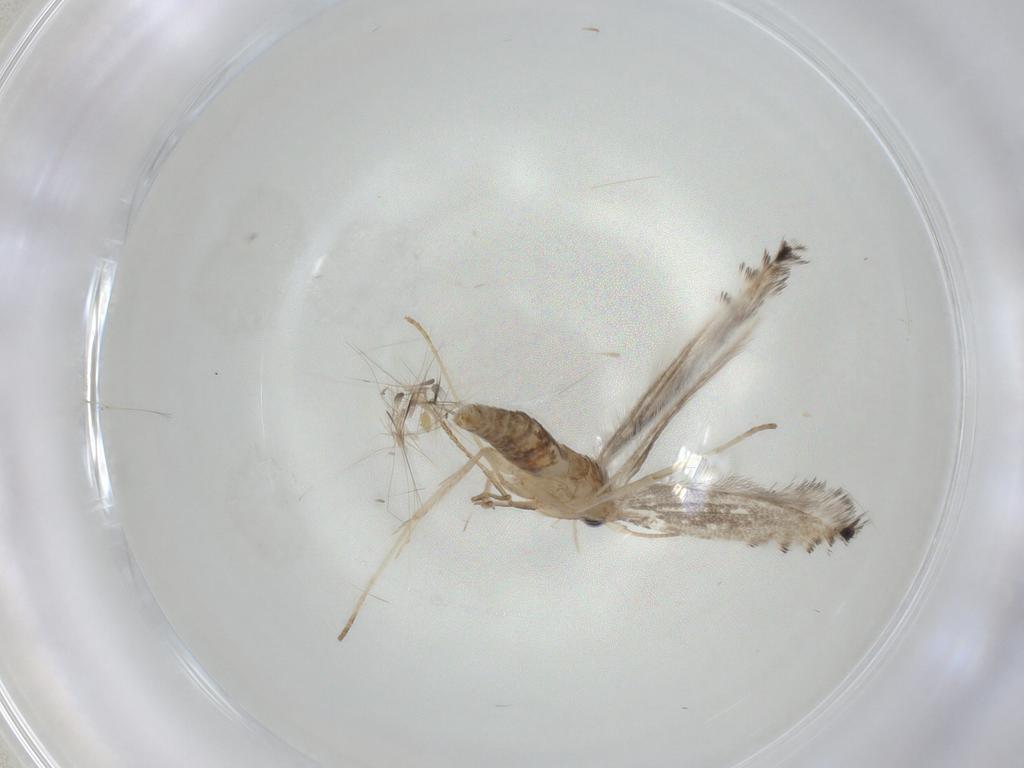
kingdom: Animalia
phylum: Arthropoda
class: Insecta
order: Lepidoptera
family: Gracillariidae
